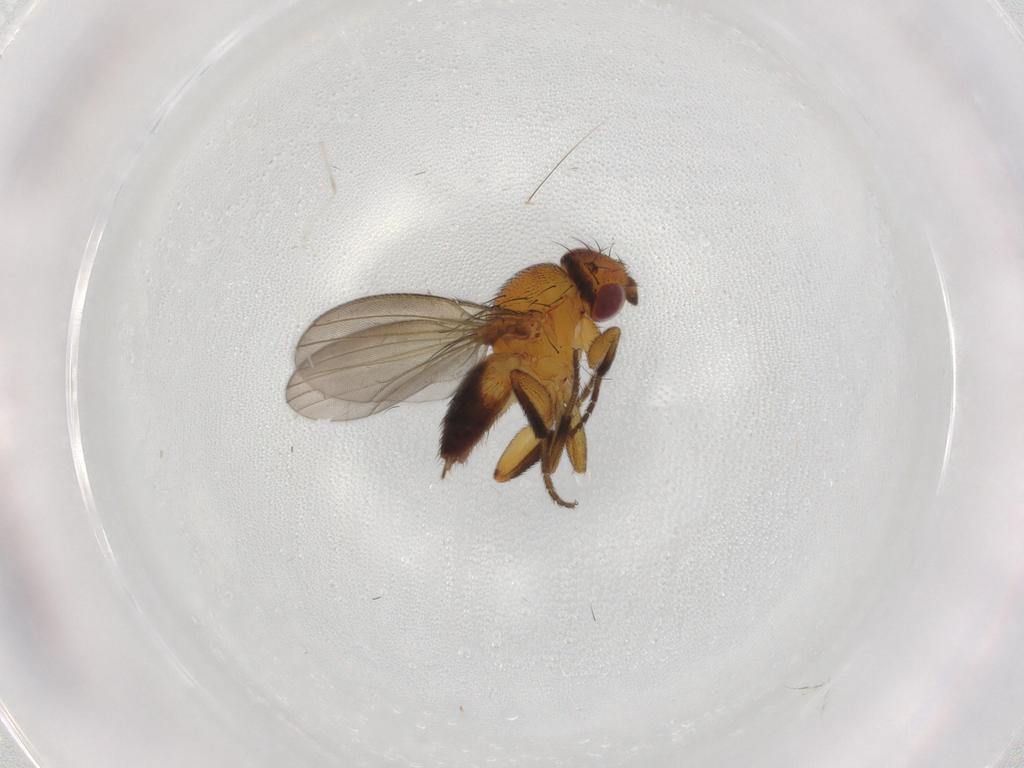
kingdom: Animalia
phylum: Arthropoda
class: Insecta
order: Diptera
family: Milichiidae
